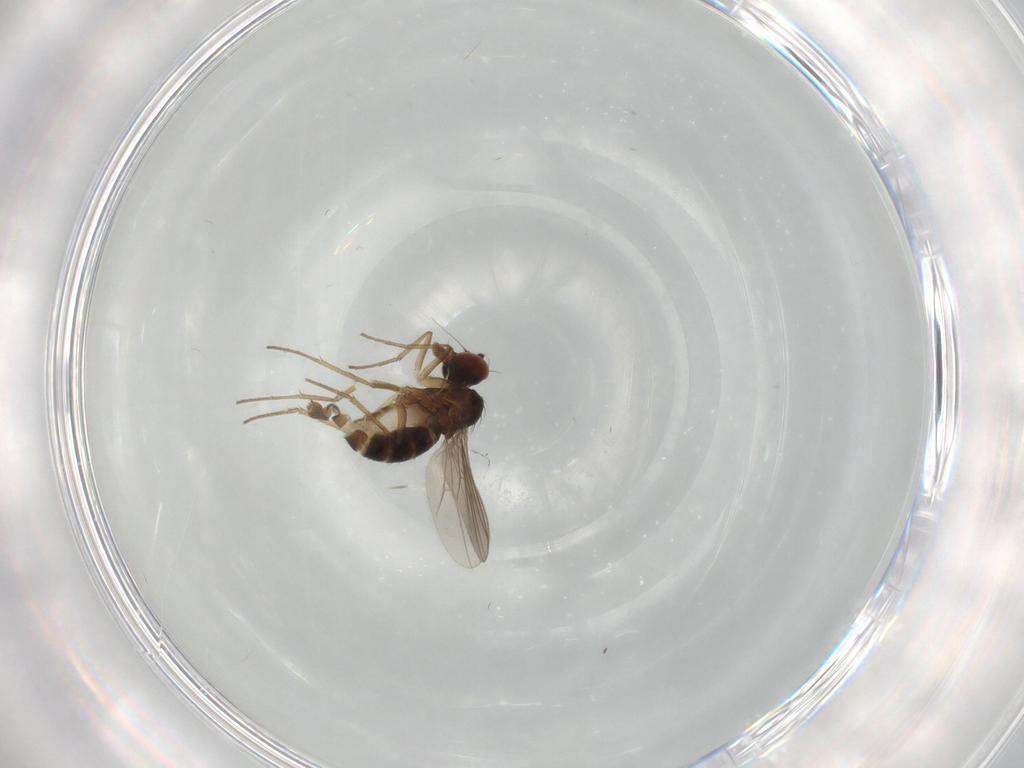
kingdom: Animalia
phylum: Arthropoda
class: Insecta
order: Diptera
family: Dolichopodidae
